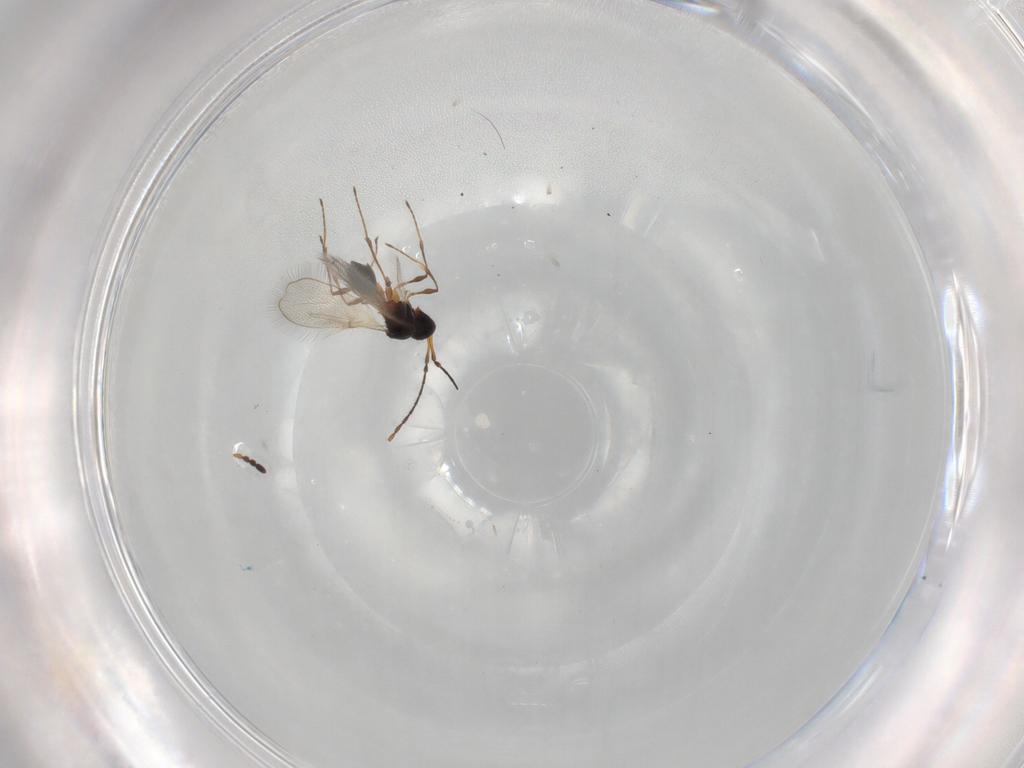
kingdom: Animalia
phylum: Arthropoda
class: Insecta
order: Hymenoptera
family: Diapriidae
